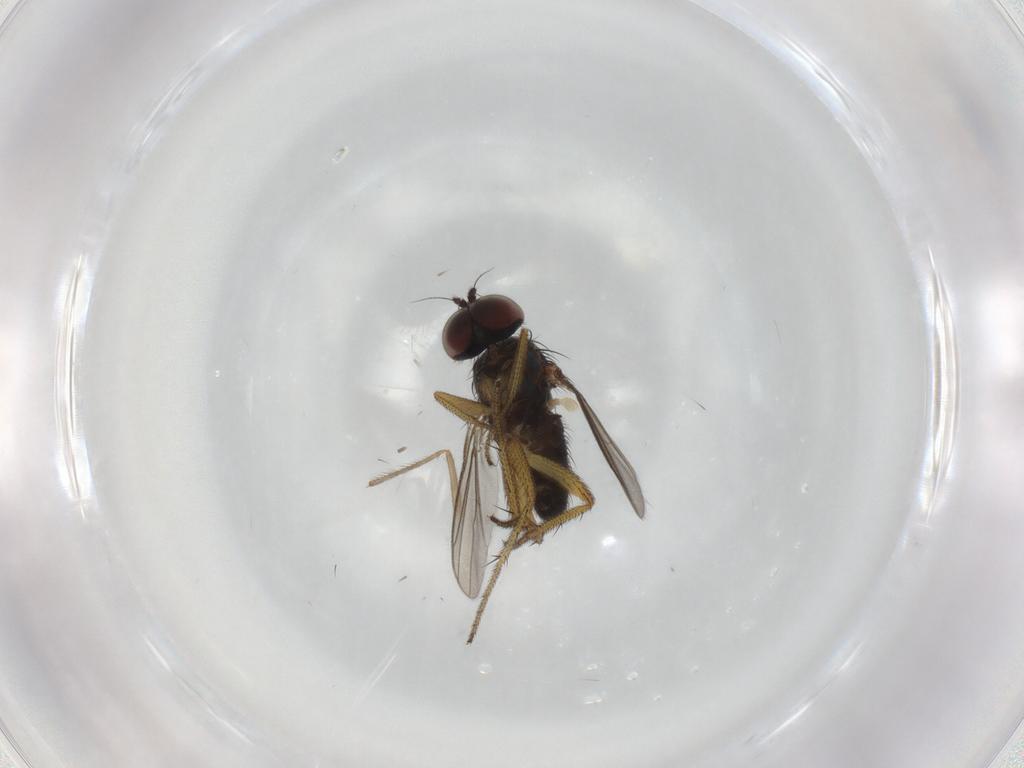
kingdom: Animalia
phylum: Arthropoda
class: Insecta
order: Diptera
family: Chironomidae
